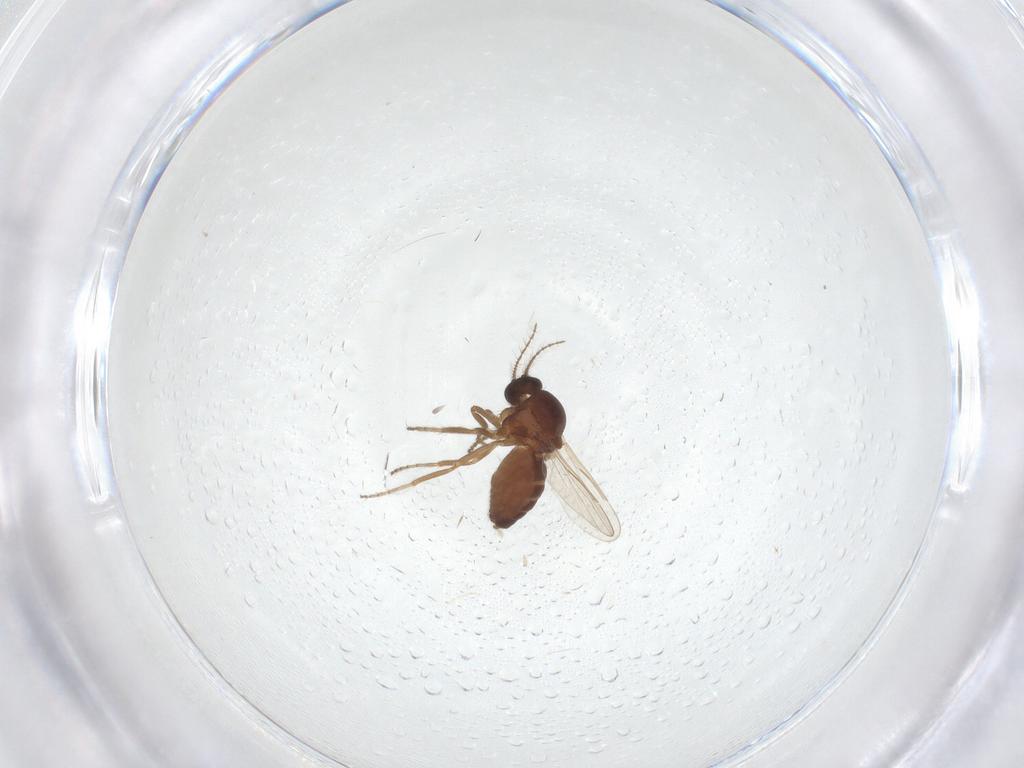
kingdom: Animalia
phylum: Arthropoda
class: Insecta
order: Diptera
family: Ceratopogonidae
